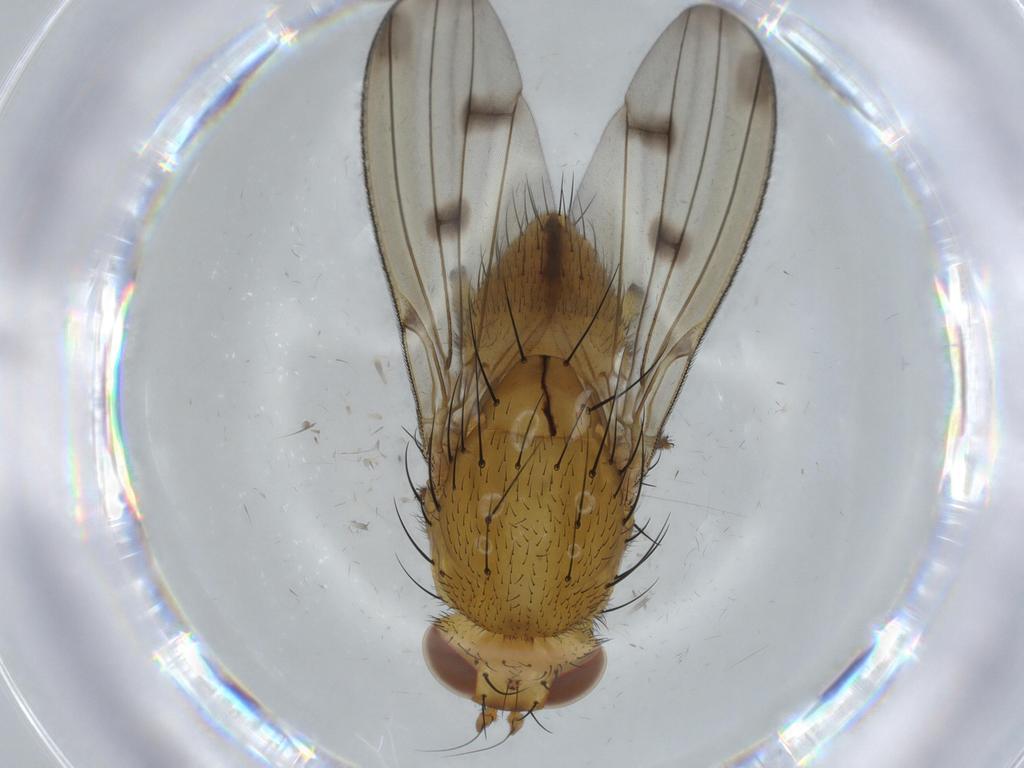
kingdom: Animalia
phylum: Arthropoda
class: Insecta
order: Diptera
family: Lauxaniidae
